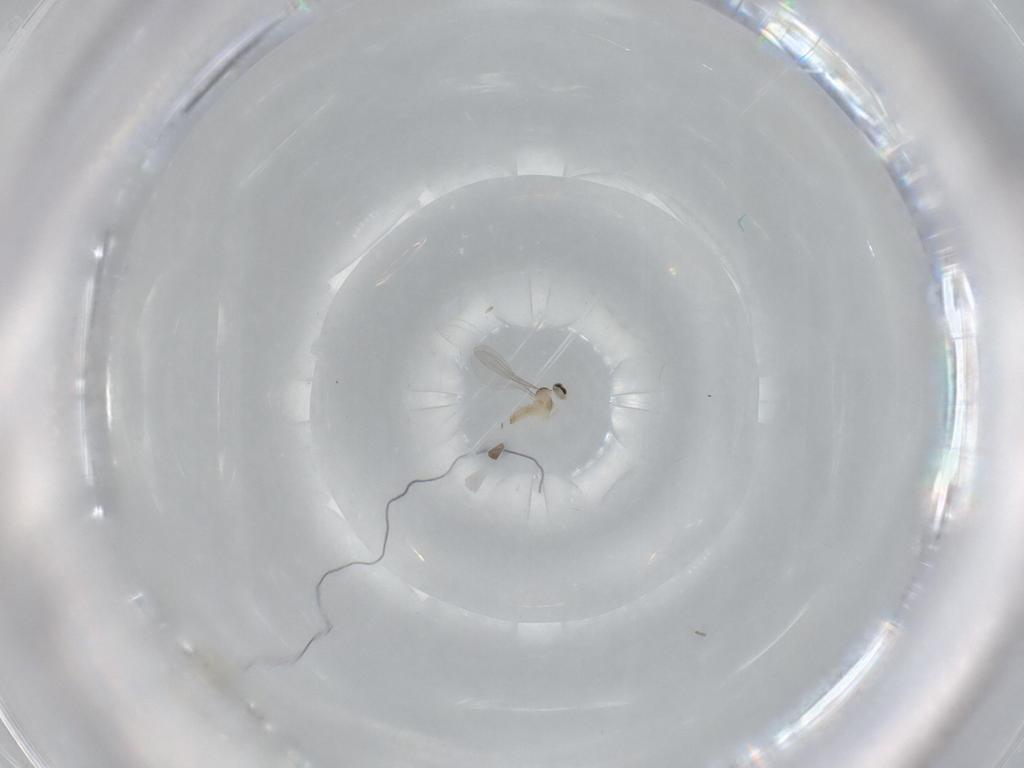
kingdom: Animalia
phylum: Arthropoda
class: Insecta
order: Diptera
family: Cecidomyiidae
